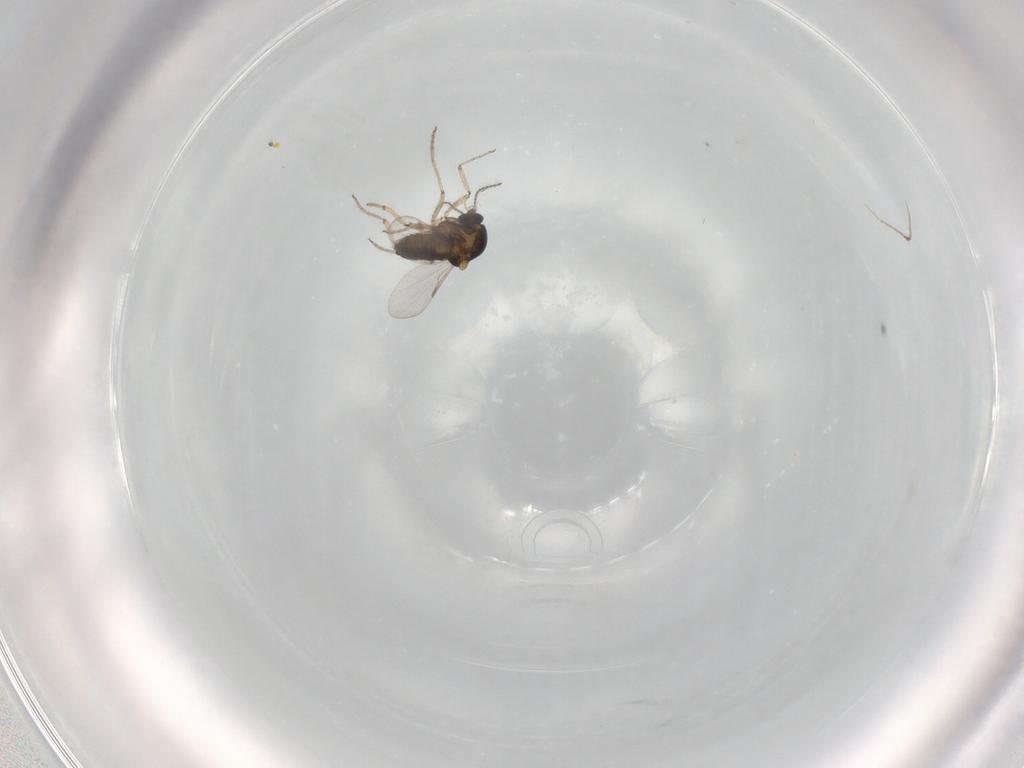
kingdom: Animalia
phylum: Arthropoda
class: Insecta
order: Diptera
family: Ceratopogonidae
